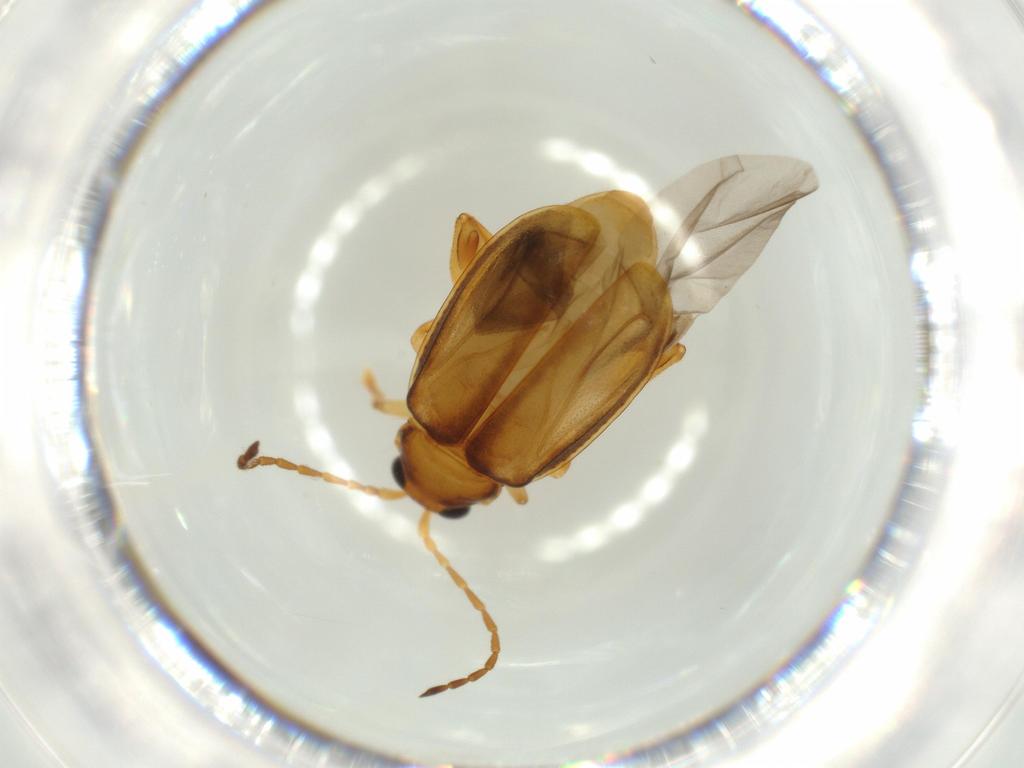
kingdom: Animalia
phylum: Arthropoda
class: Insecta
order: Coleoptera
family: Chrysomelidae
